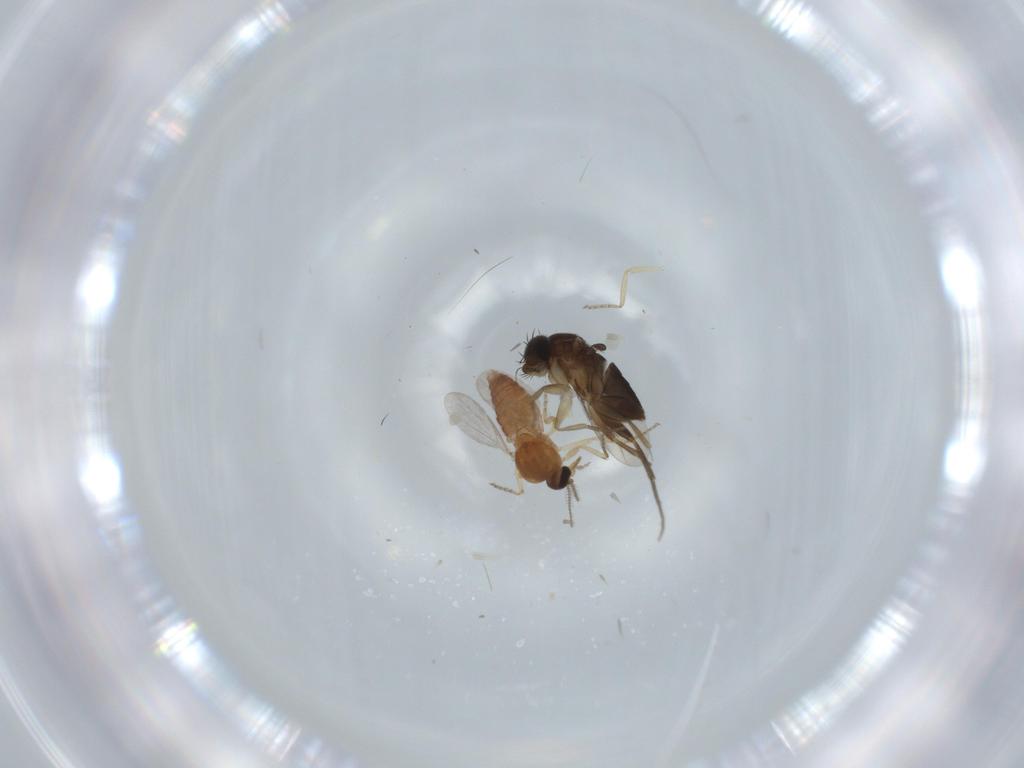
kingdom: Animalia
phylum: Arthropoda
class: Insecta
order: Diptera
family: Ceratopogonidae
